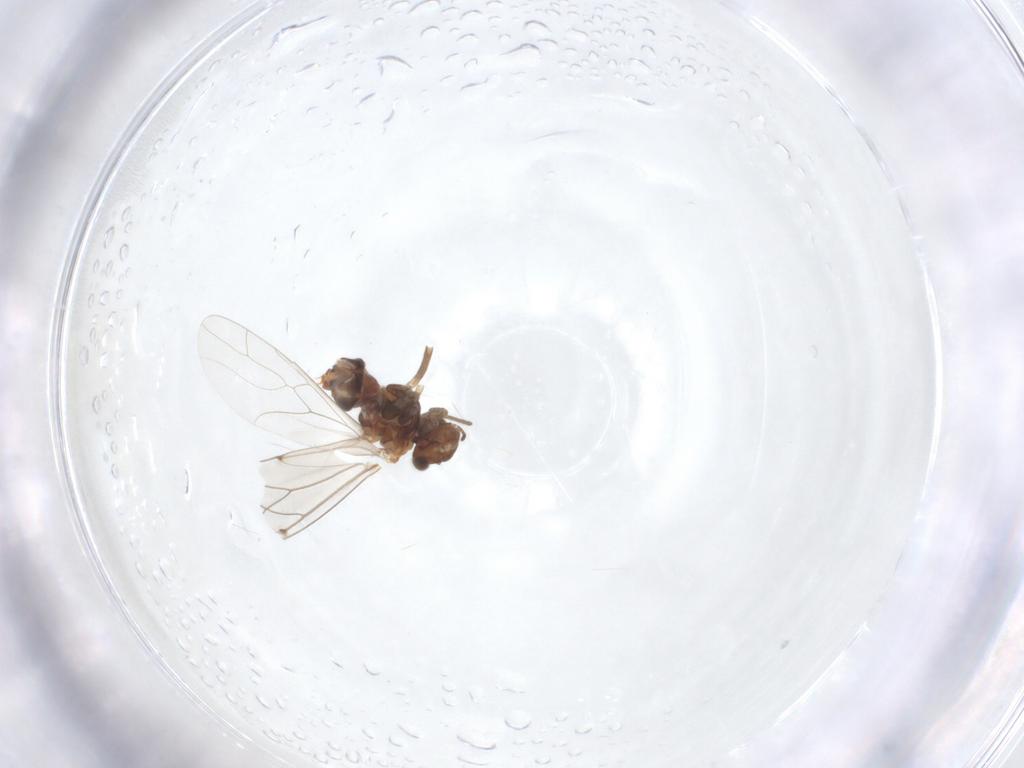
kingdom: Animalia
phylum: Arthropoda
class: Insecta
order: Psocodea
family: Lachesillidae
